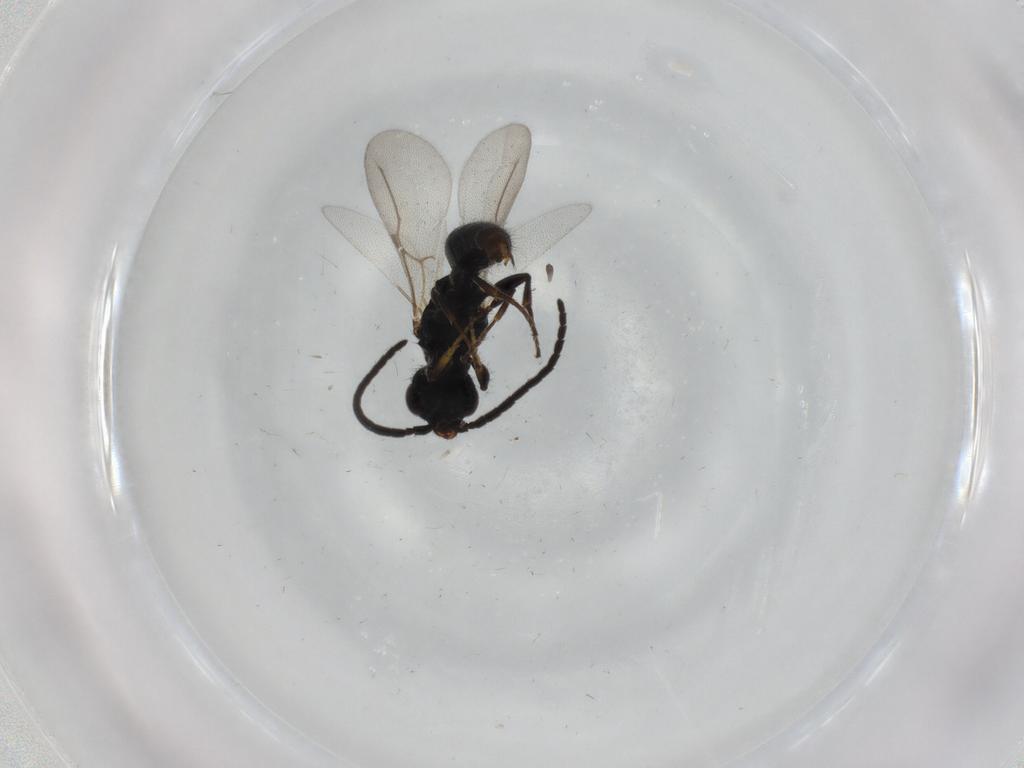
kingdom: Animalia
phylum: Arthropoda
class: Insecta
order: Hymenoptera
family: Bethylidae
